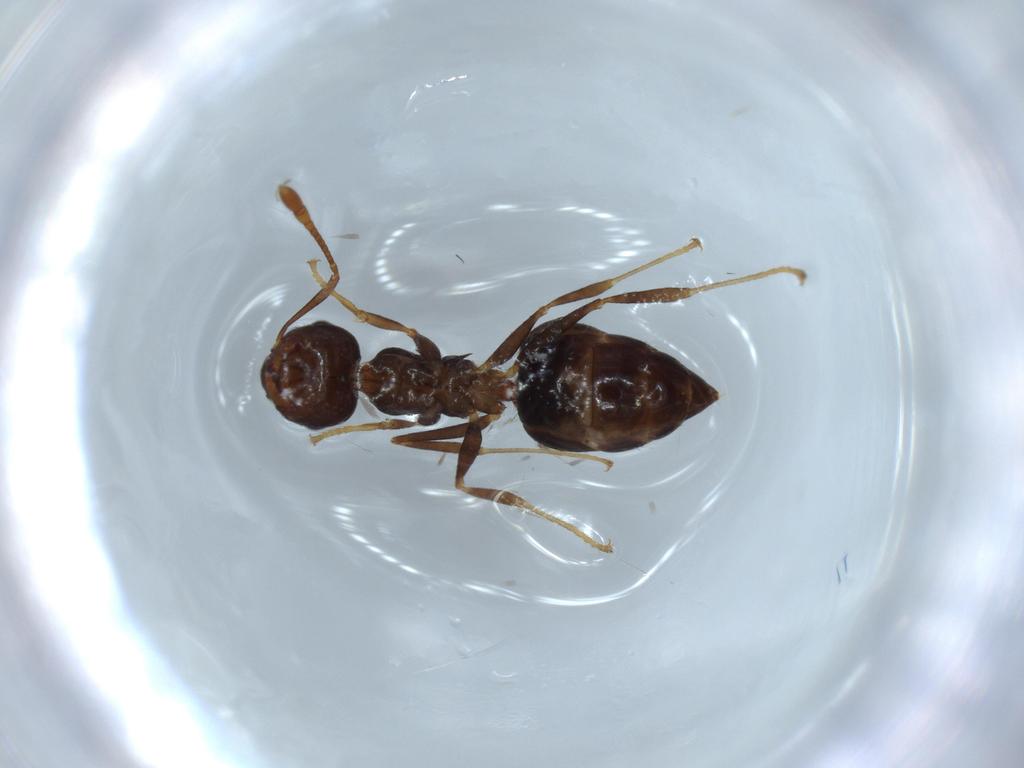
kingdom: Animalia
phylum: Arthropoda
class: Insecta
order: Hymenoptera
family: Formicidae
